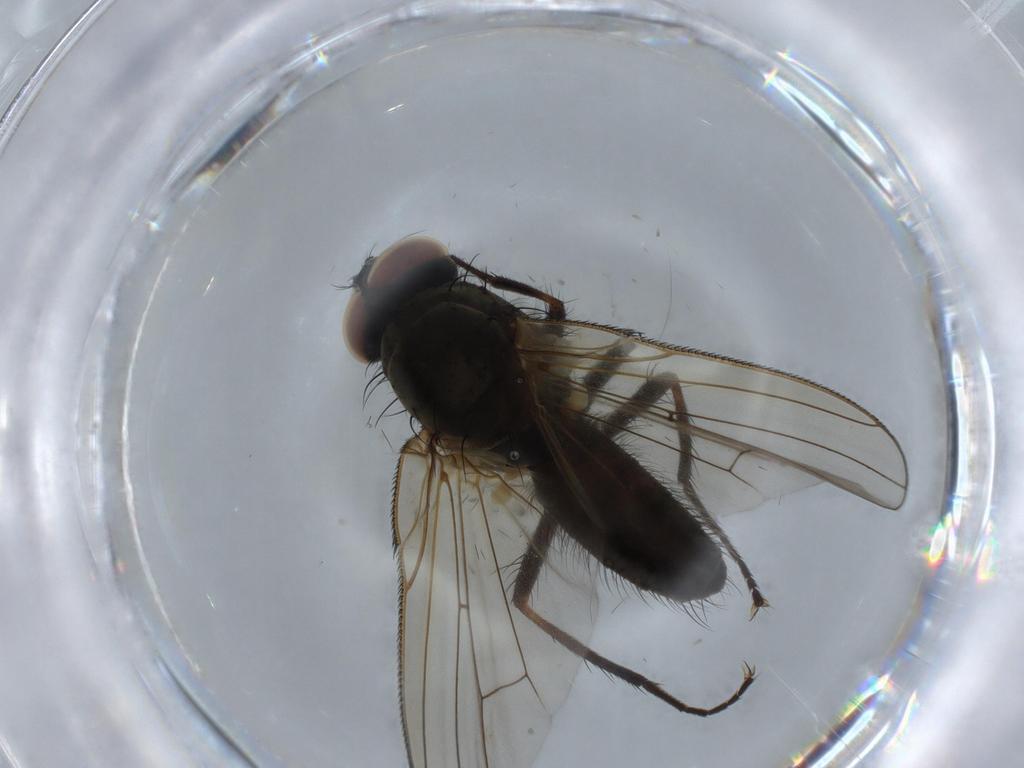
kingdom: Animalia
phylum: Arthropoda
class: Insecta
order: Diptera
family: Anthomyiidae
